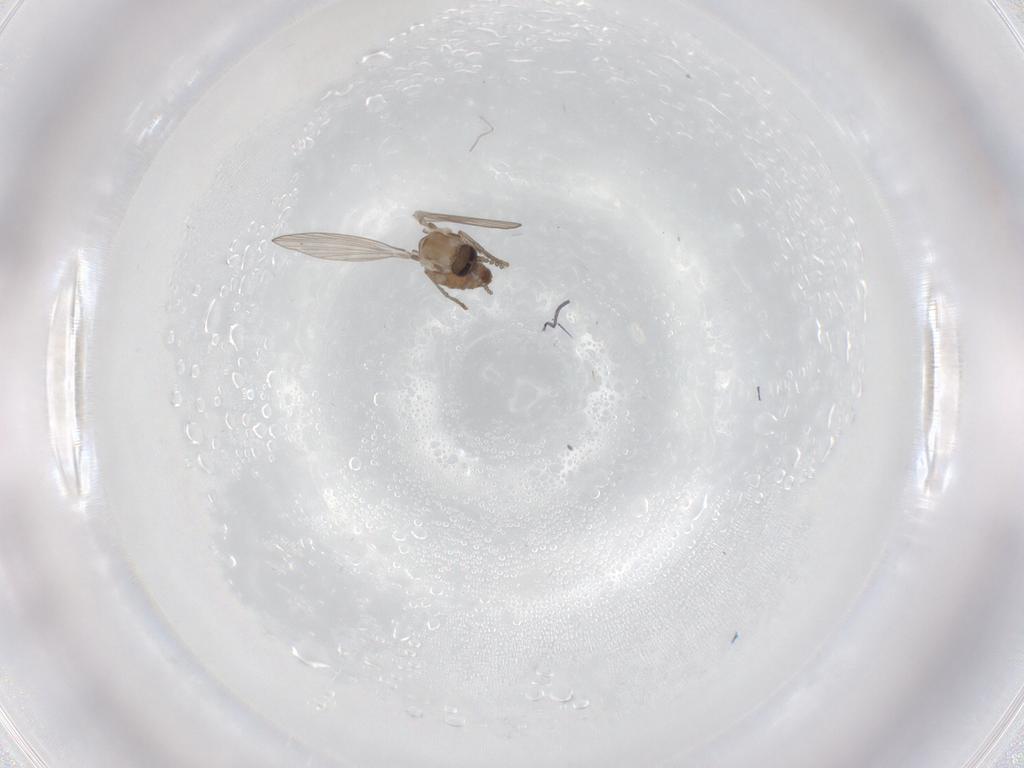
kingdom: Animalia
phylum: Arthropoda
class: Insecta
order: Diptera
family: Psychodidae
